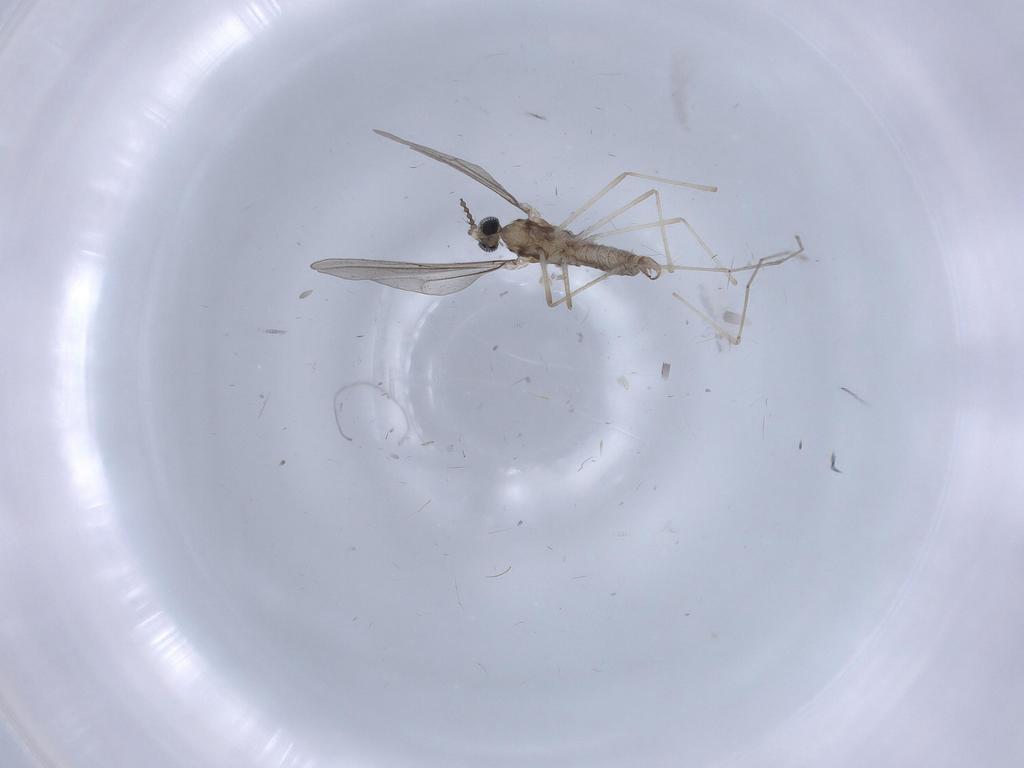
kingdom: Animalia
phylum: Arthropoda
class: Insecta
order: Diptera
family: Cecidomyiidae
